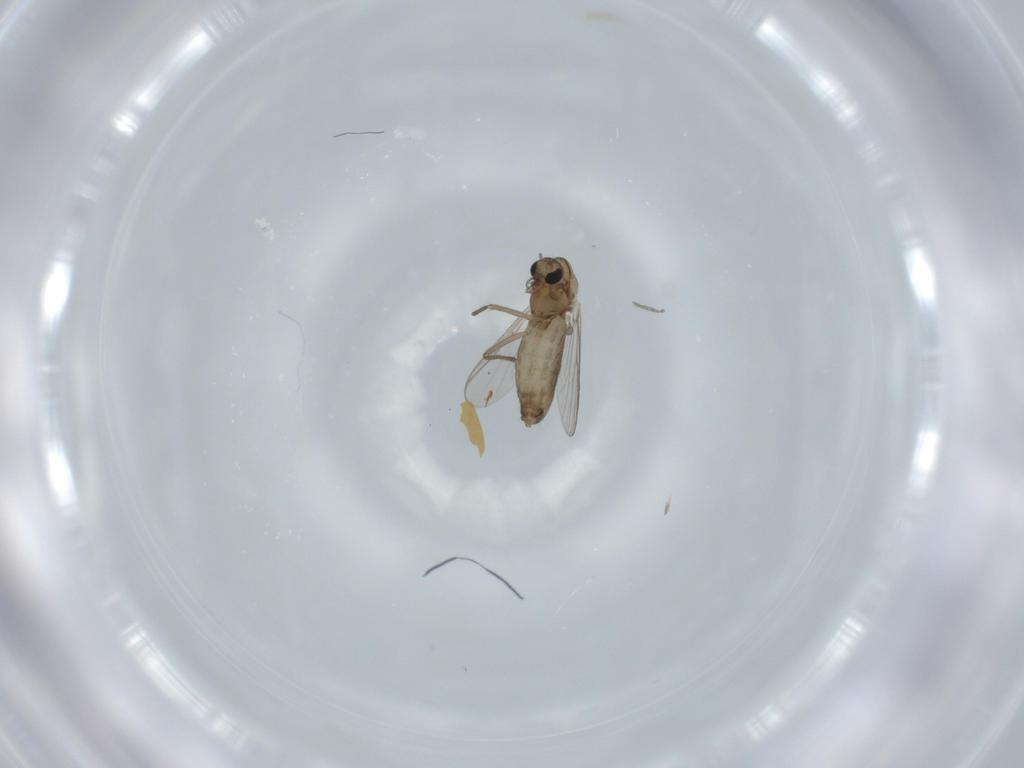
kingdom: Animalia
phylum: Arthropoda
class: Insecta
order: Diptera
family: Chironomidae
